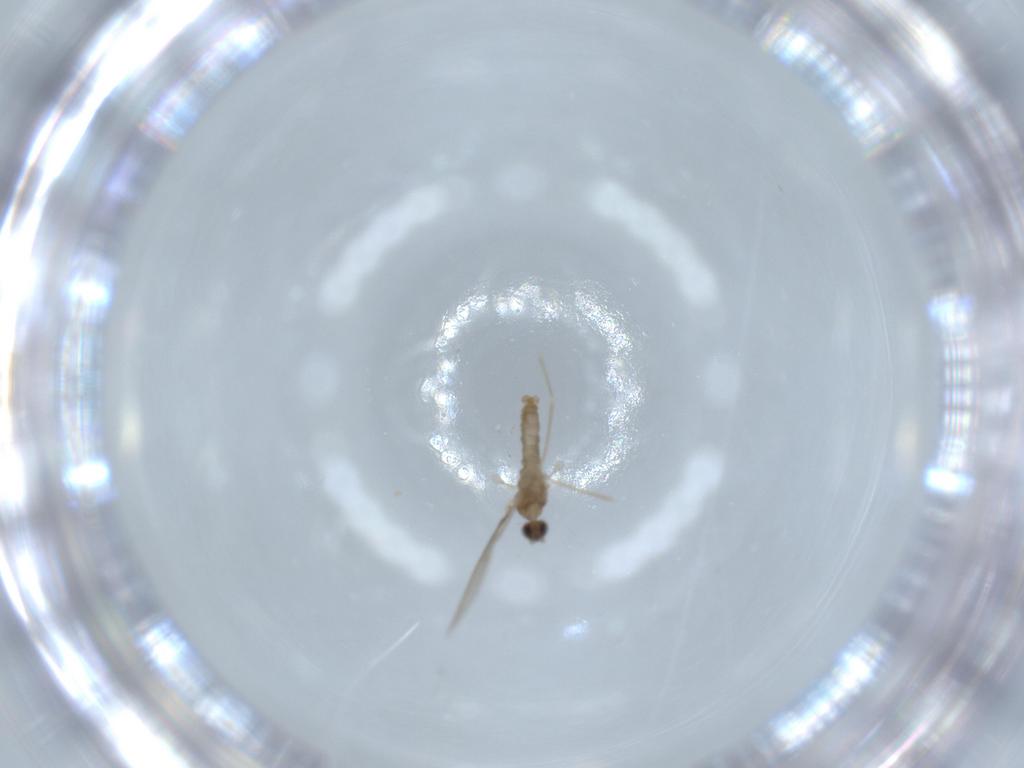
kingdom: Animalia
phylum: Arthropoda
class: Insecta
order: Diptera
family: Cecidomyiidae
